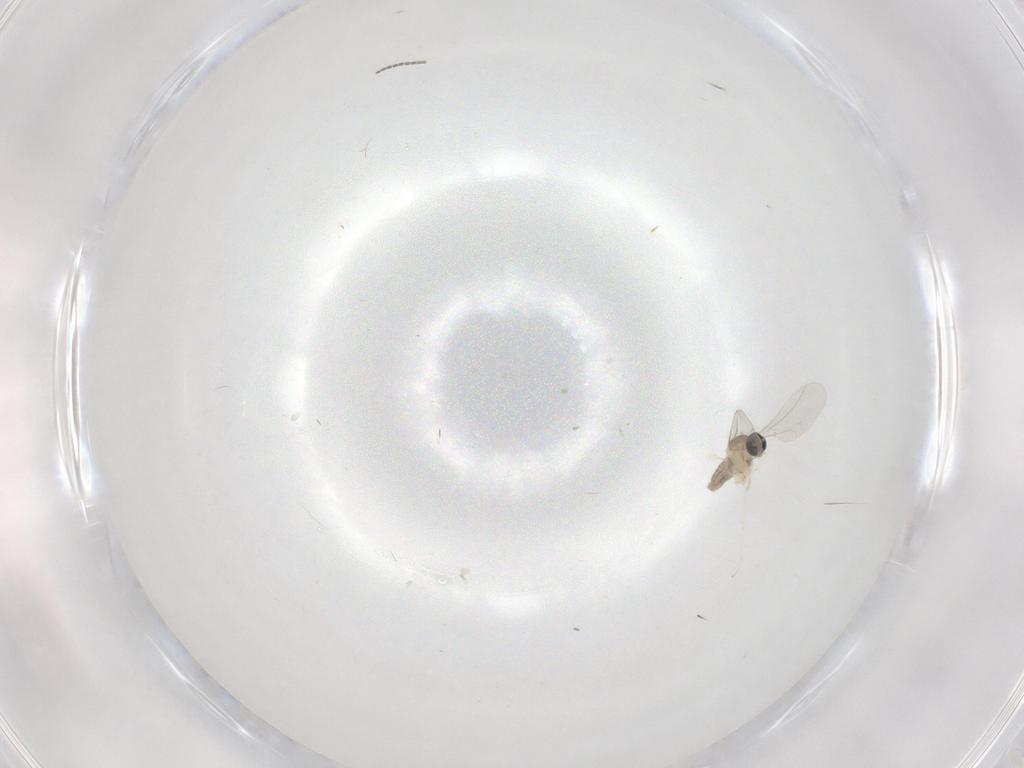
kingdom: Animalia
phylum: Arthropoda
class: Insecta
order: Diptera
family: Cecidomyiidae
